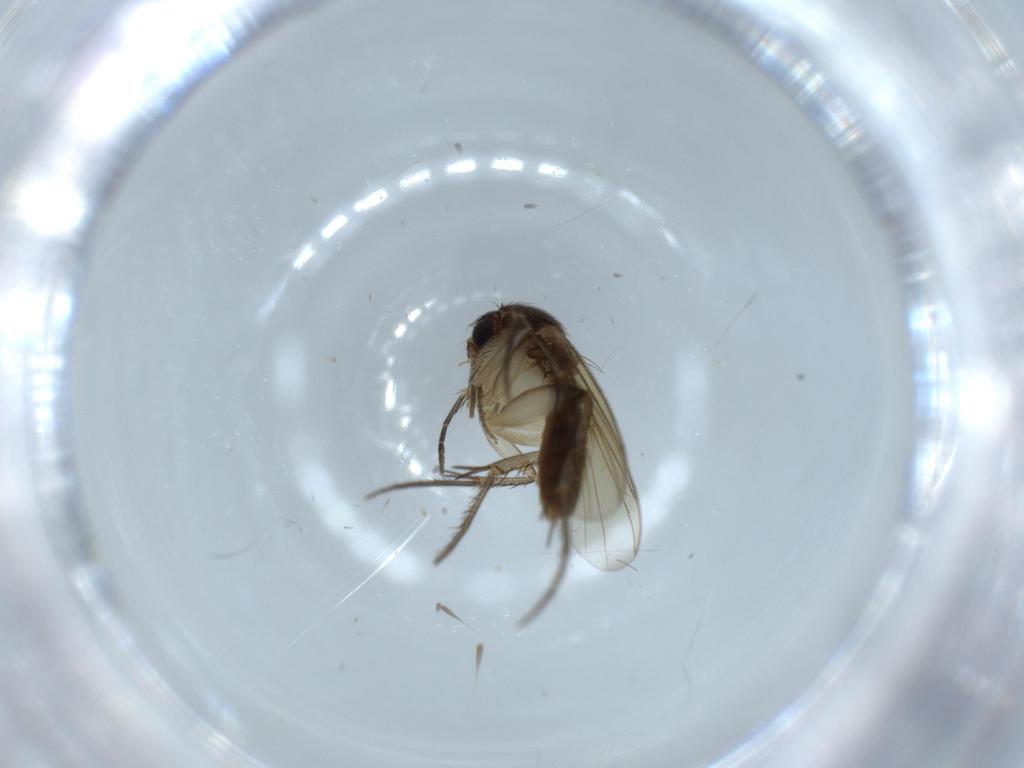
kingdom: Animalia
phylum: Arthropoda
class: Insecta
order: Diptera
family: Mycetophilidae
